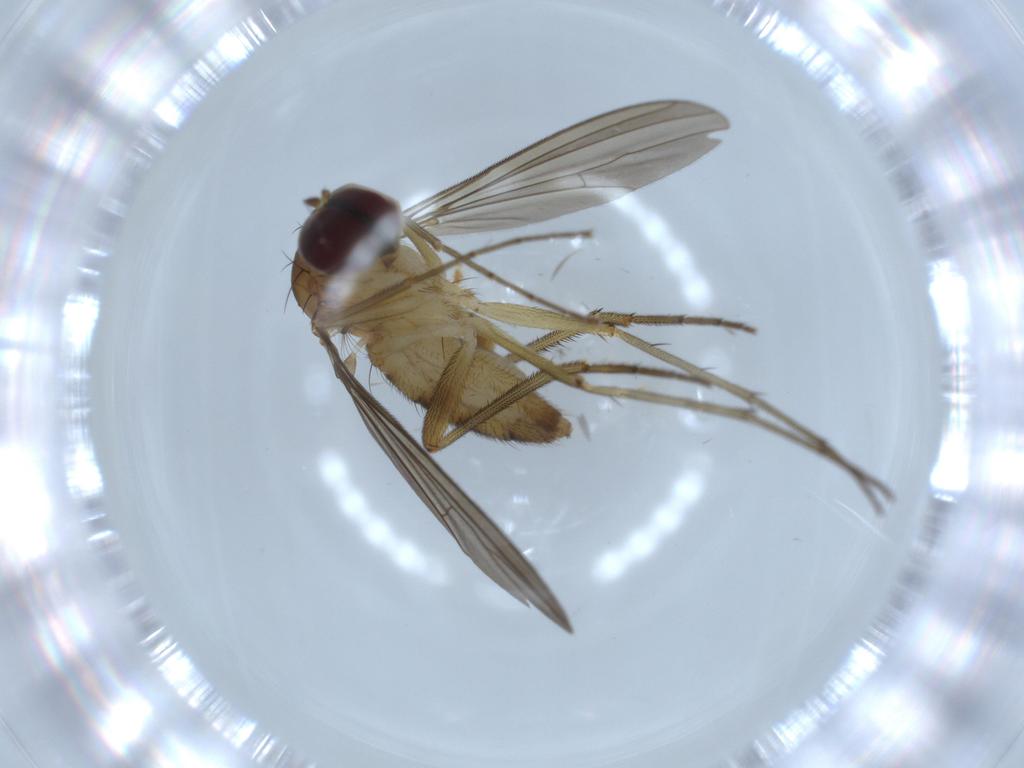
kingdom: Animalia
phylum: Arthropoda
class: Insecta
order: Diptera
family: Dolichopodidae
